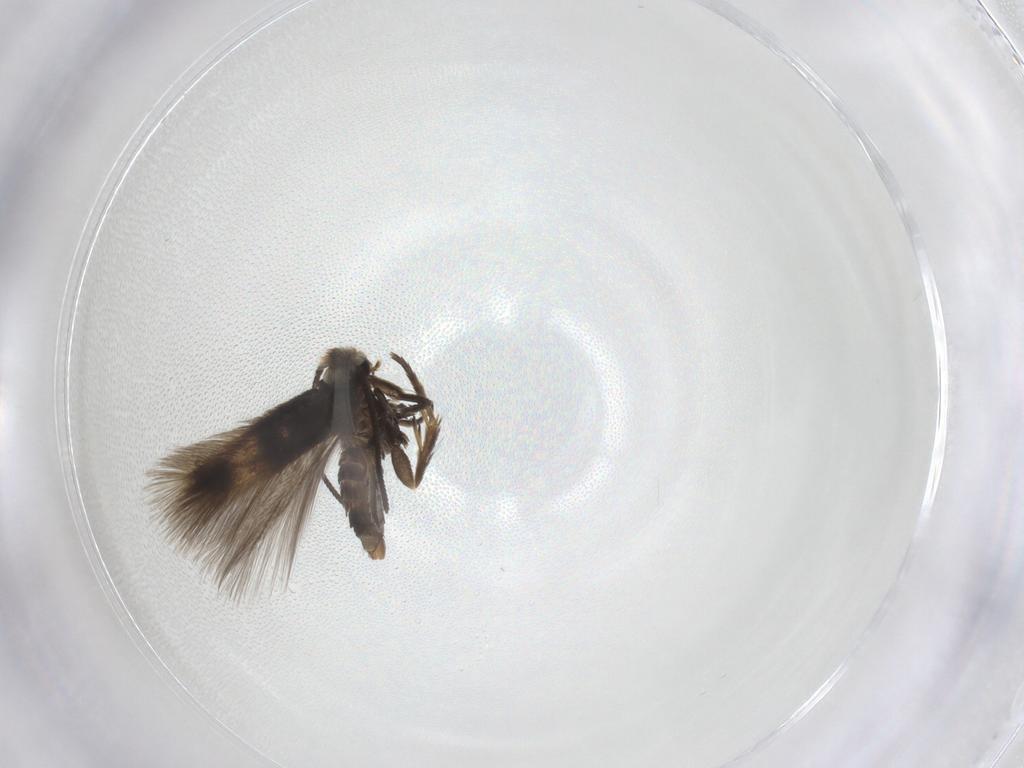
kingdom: Animalia
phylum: Arthropoda
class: Insecta
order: Lepidoptera
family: Nepticulidae
